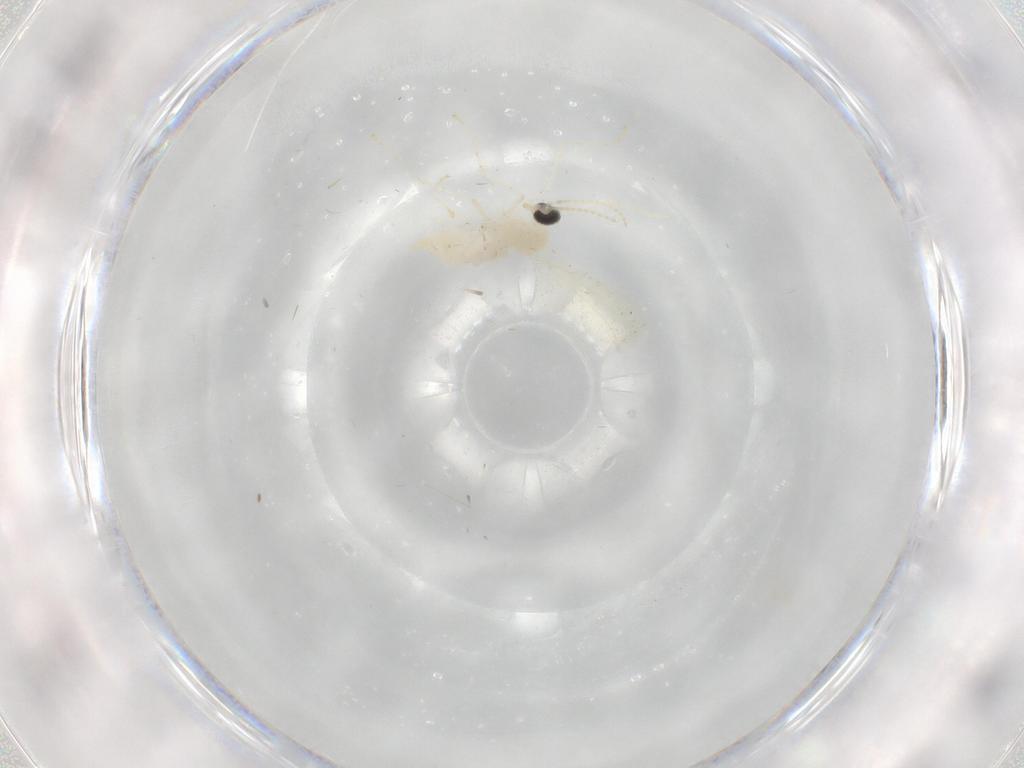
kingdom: Animalia
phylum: Arthropoda
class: Insecta
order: Diptera
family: Cecidomyiidae
